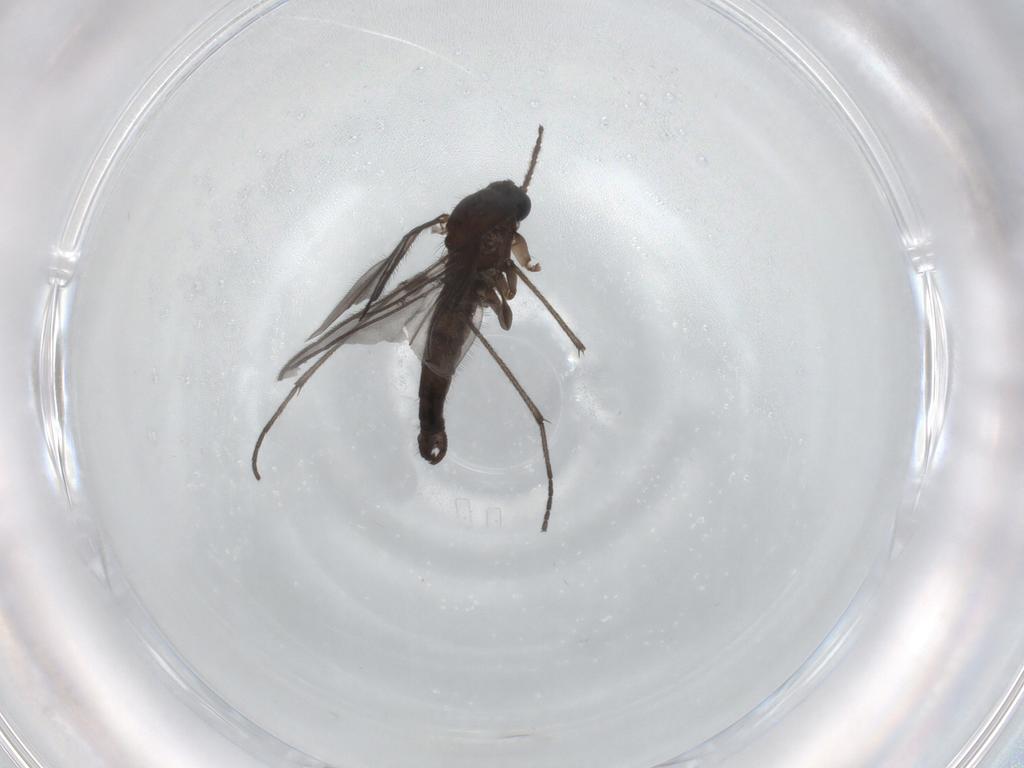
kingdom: Animalia
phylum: Arthropoda
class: Insecta
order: Diptera
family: Sciaridae
